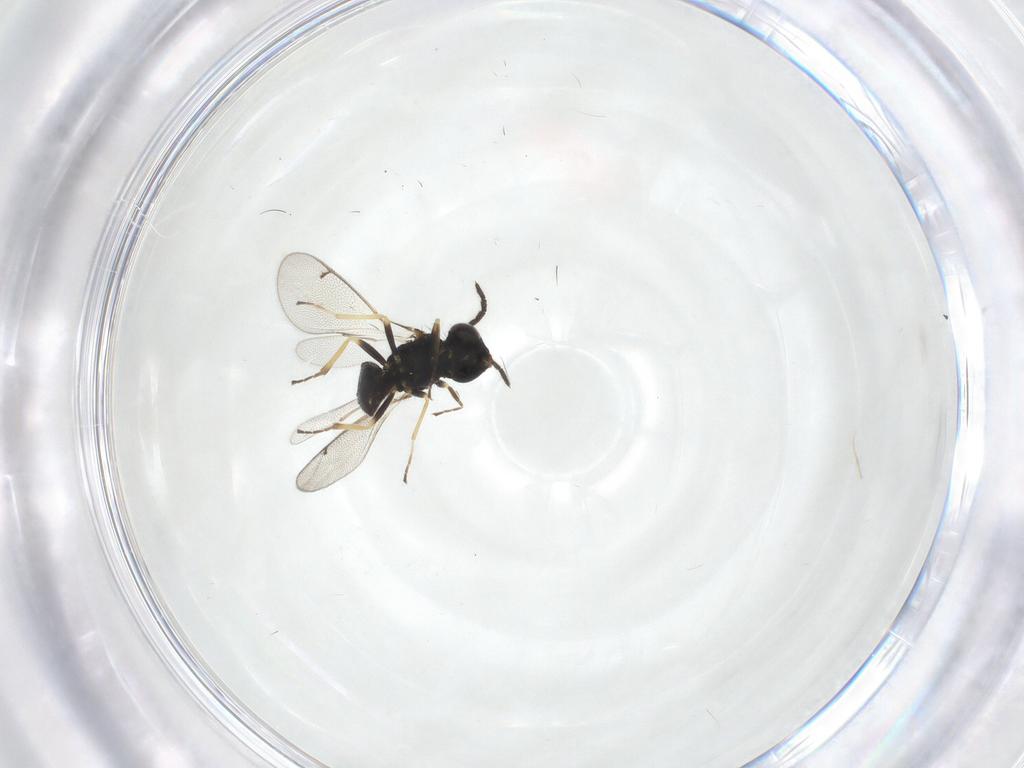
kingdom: Animalia
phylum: Arthropoda
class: Insecta
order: Hymenoptera
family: Eulophidae
